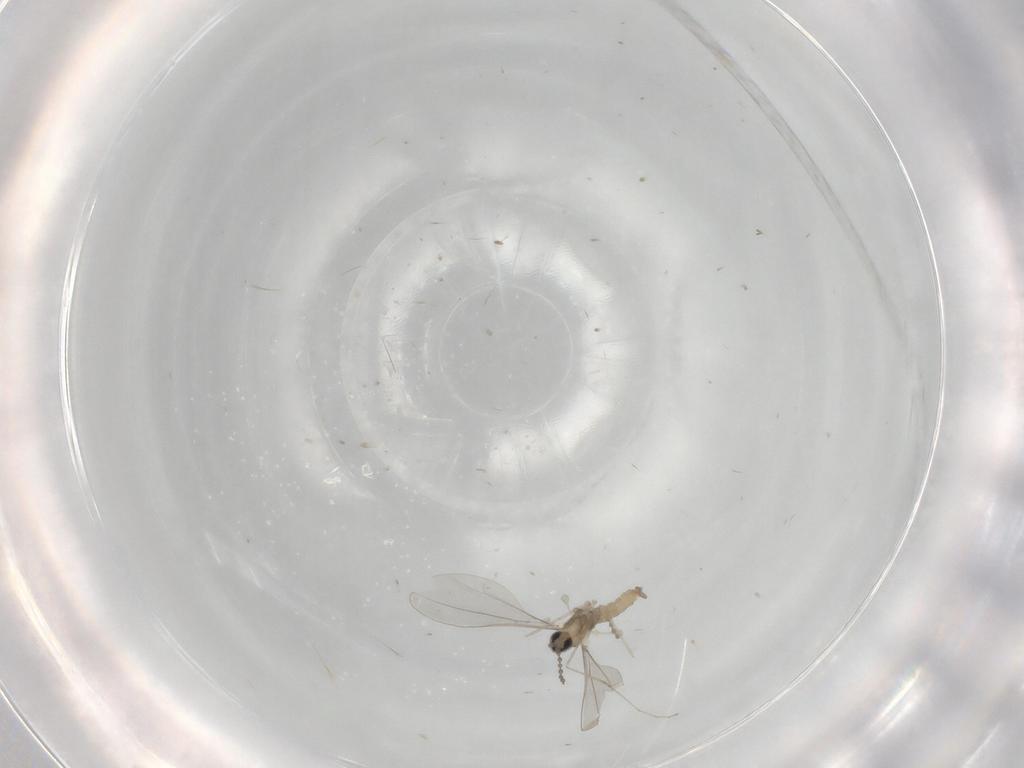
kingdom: Animalia
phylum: Arthropoda
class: Insecta
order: Diptera
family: Cecidomyiidae
